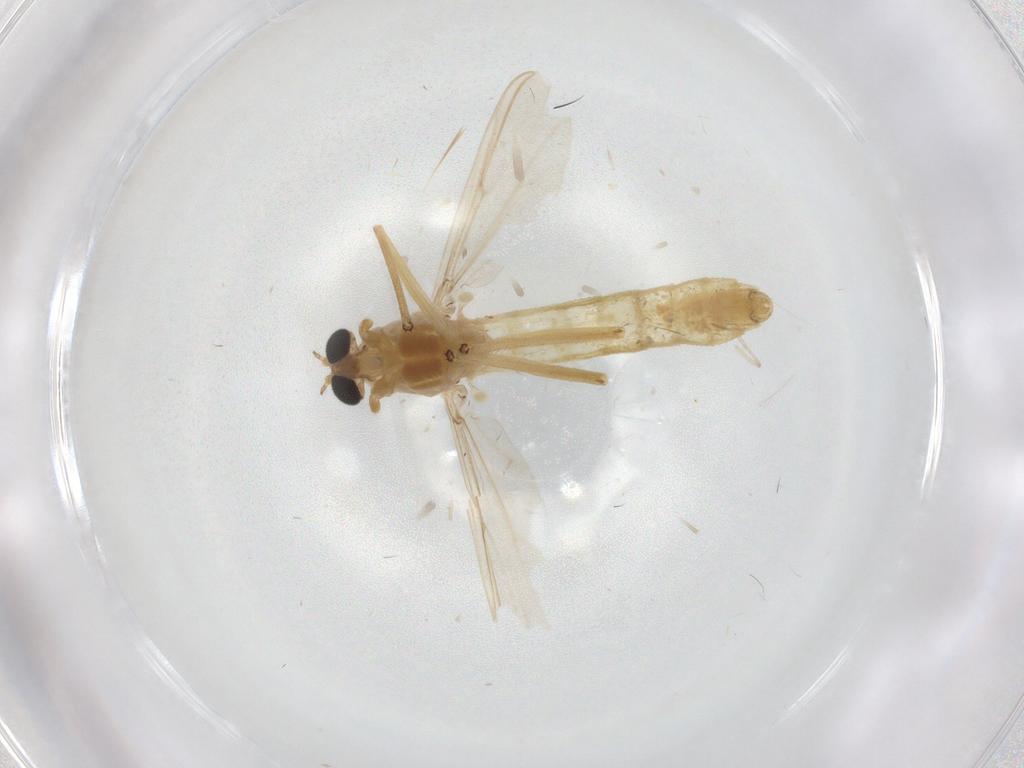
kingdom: Animalia
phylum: Arthropoda
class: Insecta
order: Diptera
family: Chironomidae
